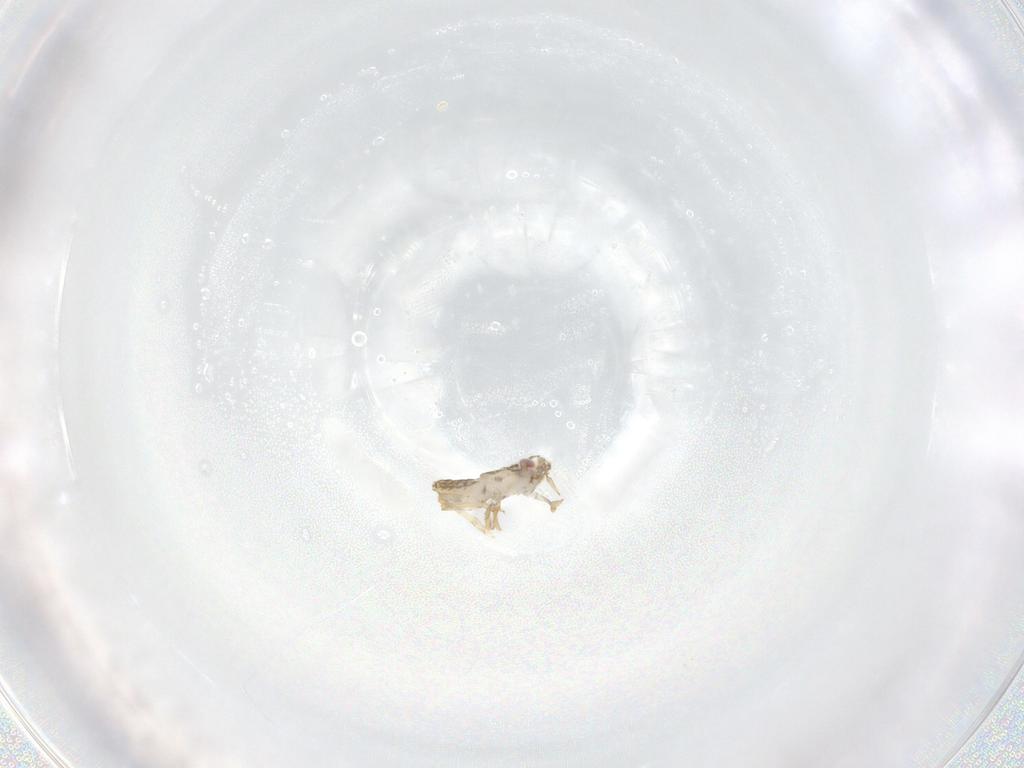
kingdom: Animalia
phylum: Arthropoda
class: Insecta
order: Hemiptera
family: Delphacidae
